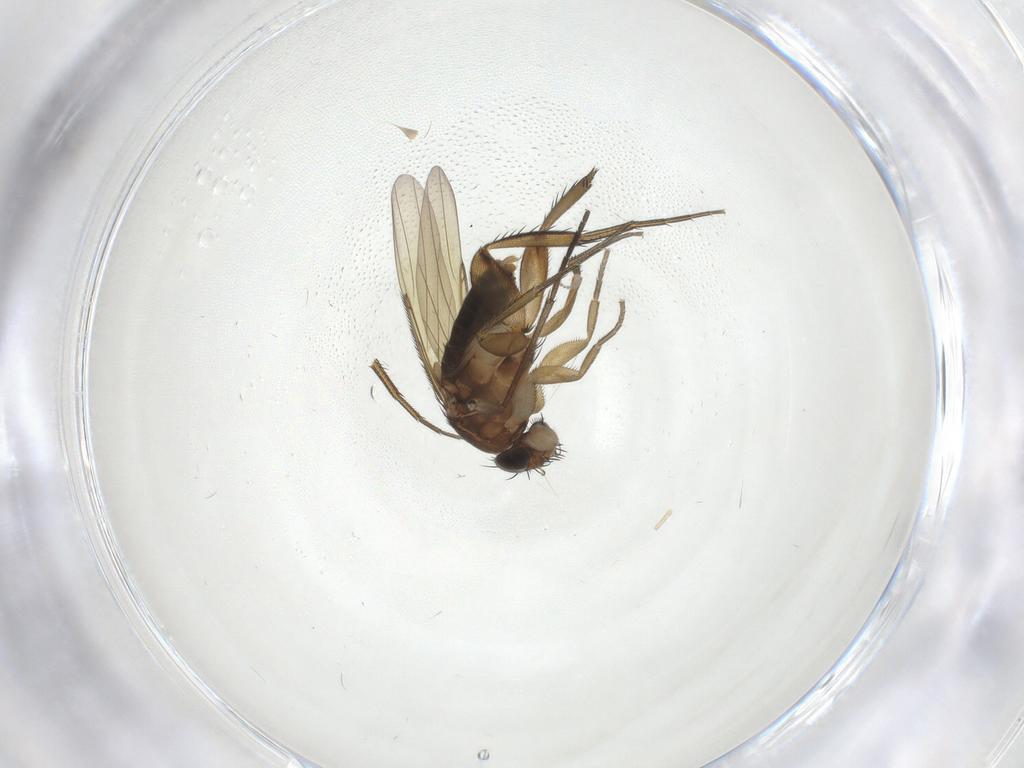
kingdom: Animalia
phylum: Arthropoda
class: Insecta
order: Diptera
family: Phoridae
